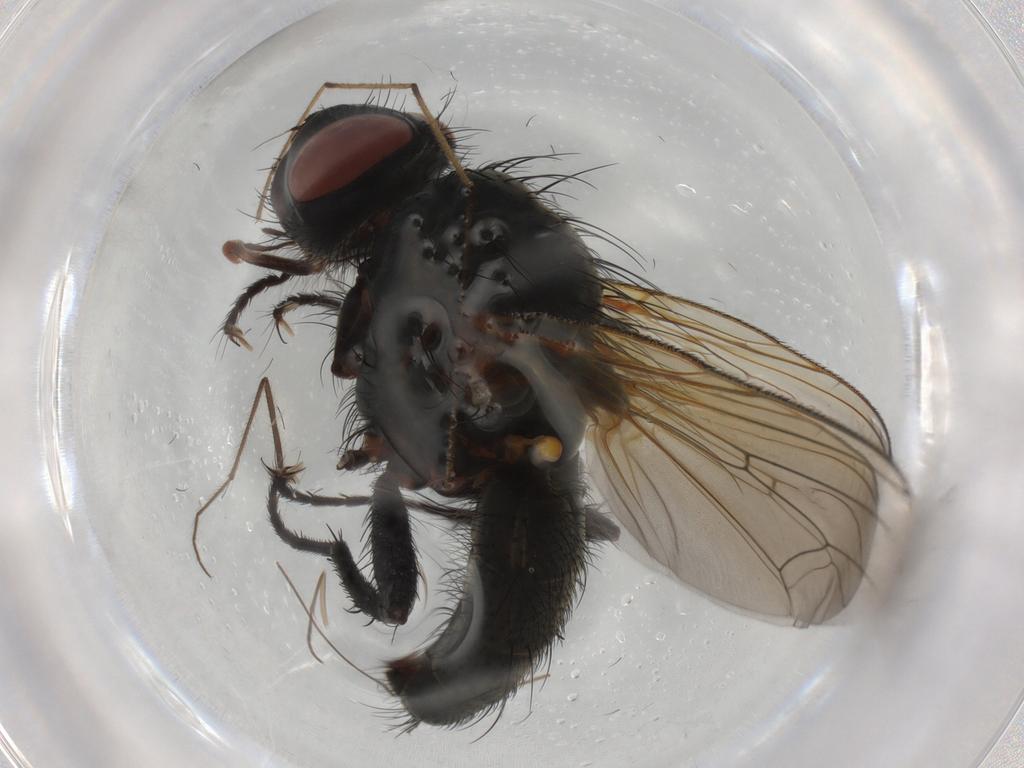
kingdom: Animalia
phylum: Arthropoda
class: Insecta
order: Diptera
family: Anthomyiidae
